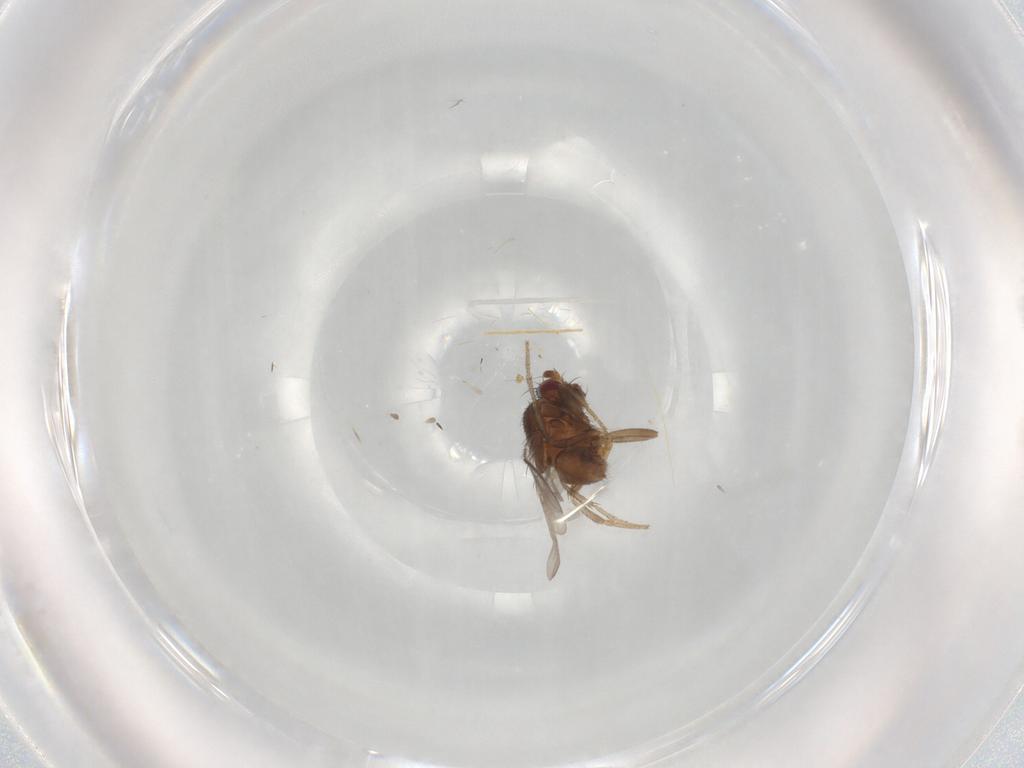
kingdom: Animalia
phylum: Arthropoda
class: Insecta
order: Diptera
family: Sphaeroceridae
